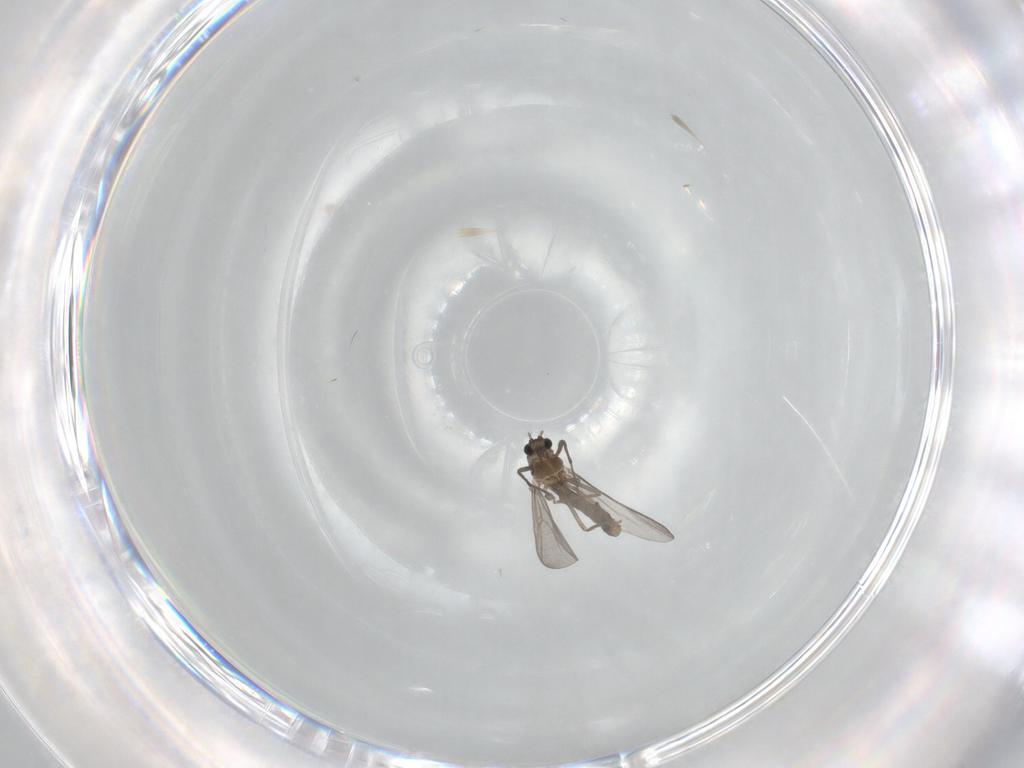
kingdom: Animalia
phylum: Arthropoda
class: Insecta
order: Diptera
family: Chironomidae
